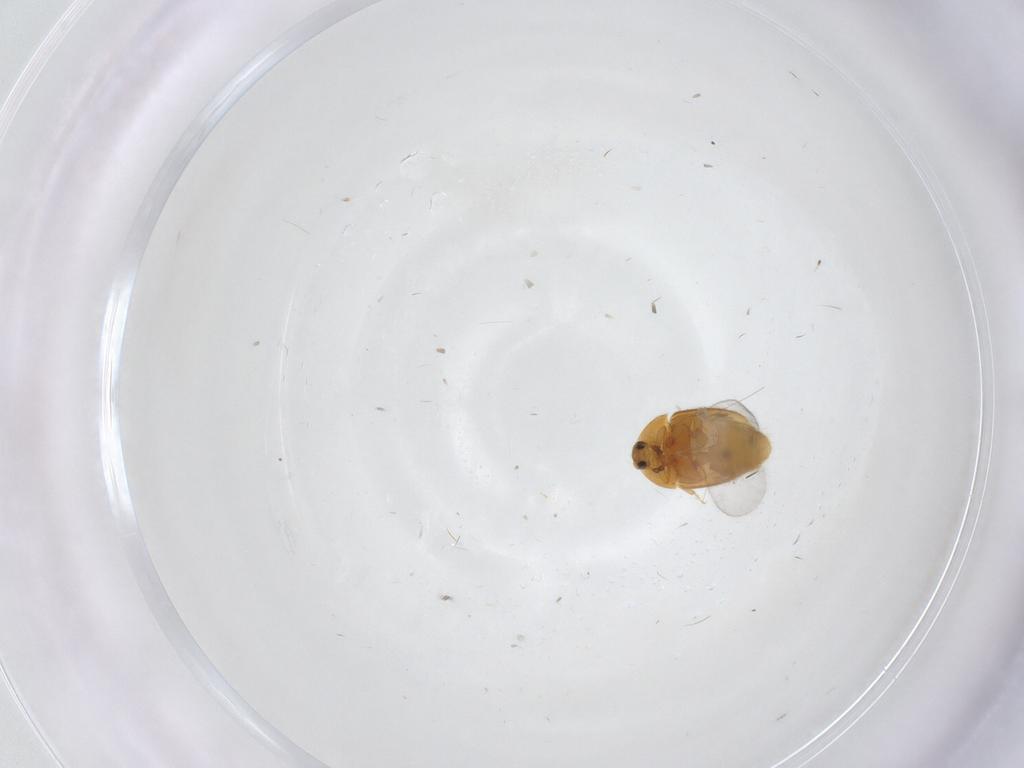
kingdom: Animalia
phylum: Arthropoda
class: Insecta
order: Coleoptera
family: Corylophidae
